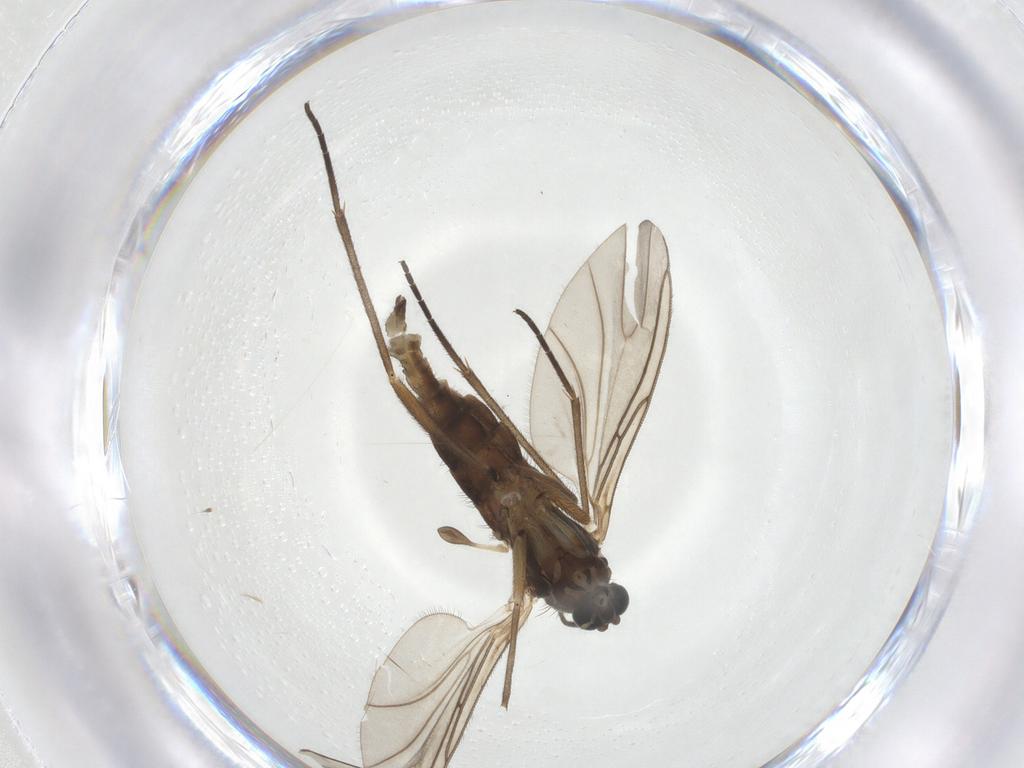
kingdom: Animalia
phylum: Arthropoda
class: Insecta
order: Diptera
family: Sciaridae
